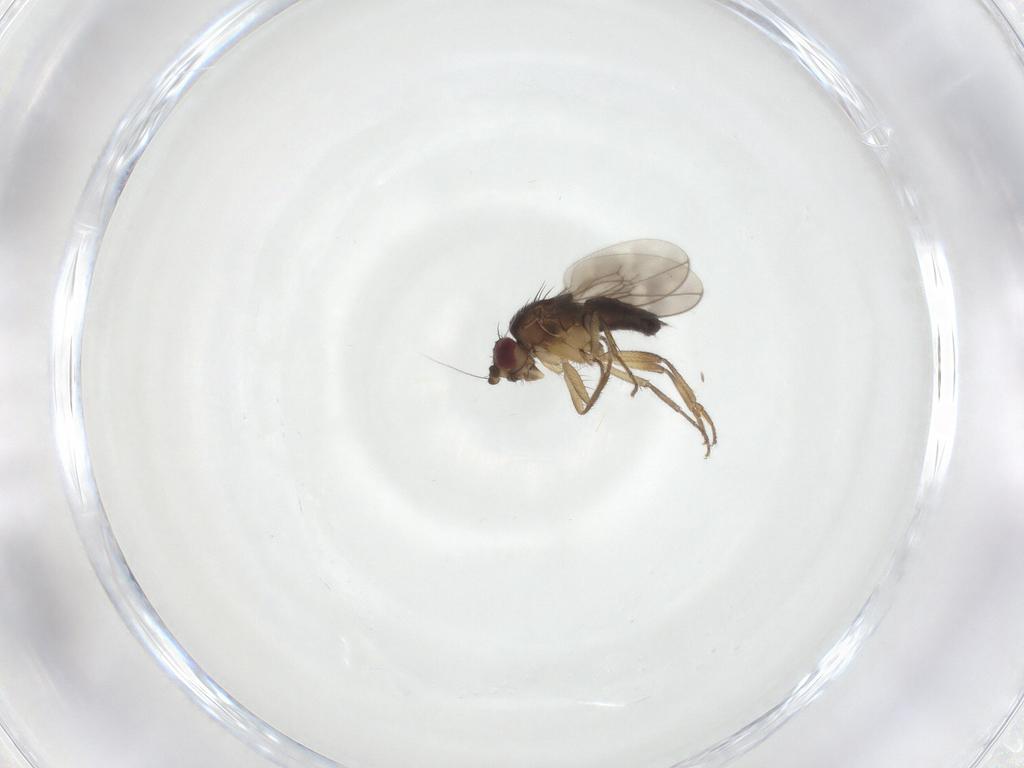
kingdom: Animalia
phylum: Arthropoda
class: Insecta
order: Diptera
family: Sphaeroceridae
